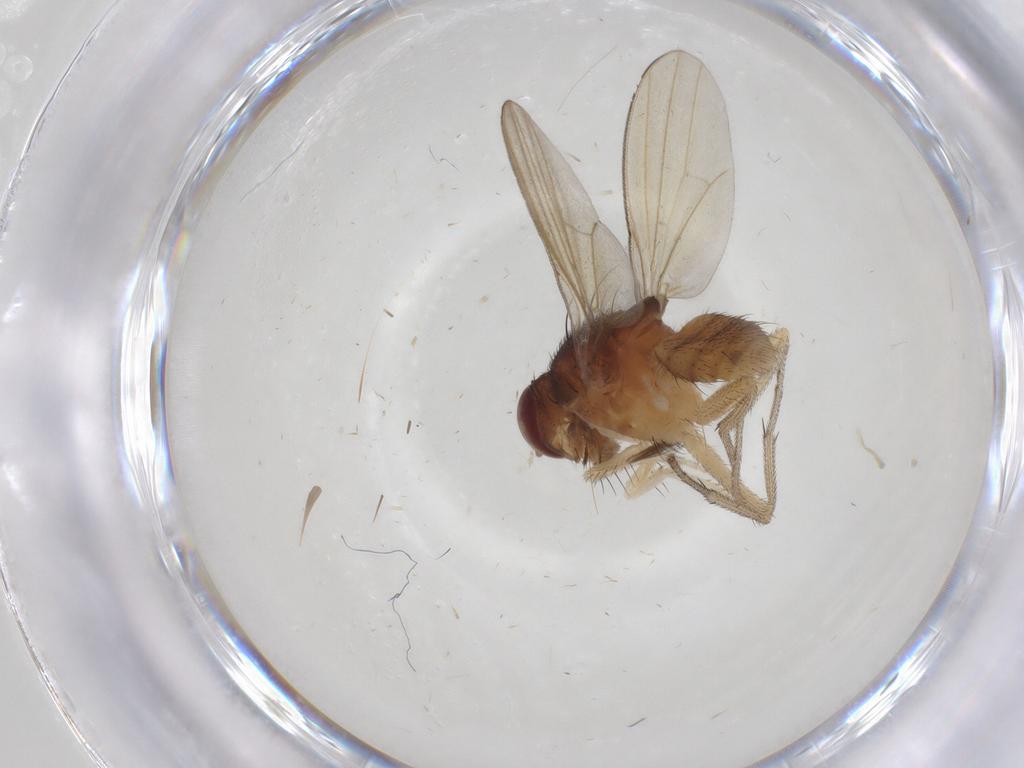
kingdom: Animalia
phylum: Arthropoda
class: Insecta
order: Diptera
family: Lauxaniidae
